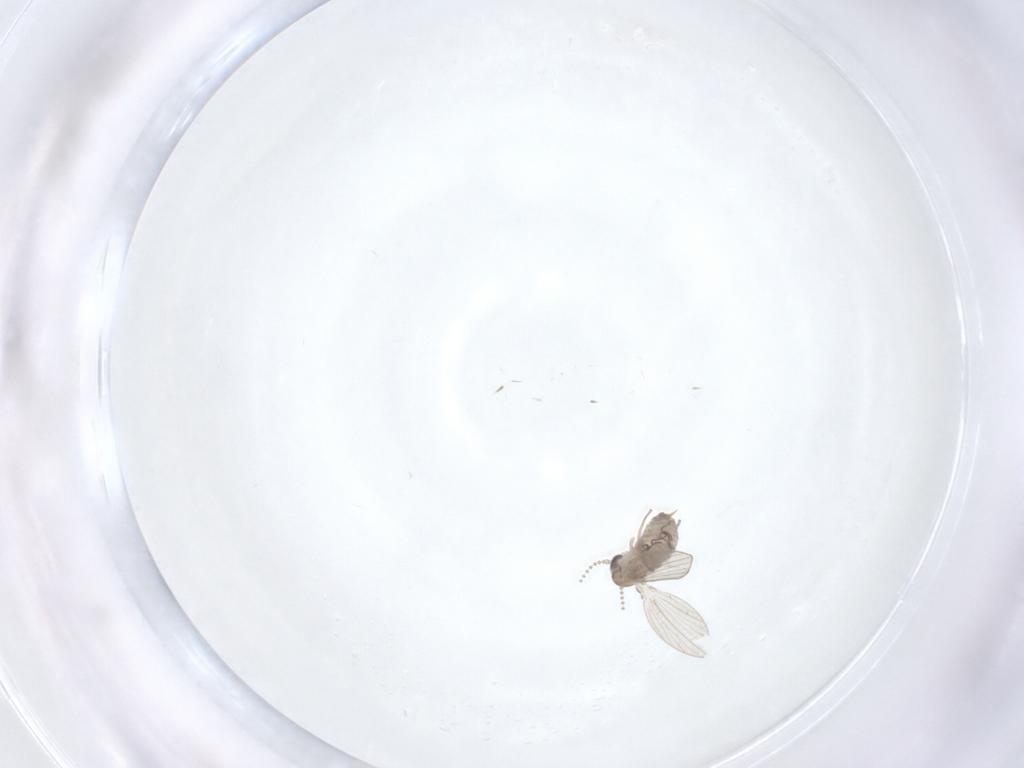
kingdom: Animalia
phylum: Arthropoda
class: Insecta
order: Diptera
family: Psychodidae
